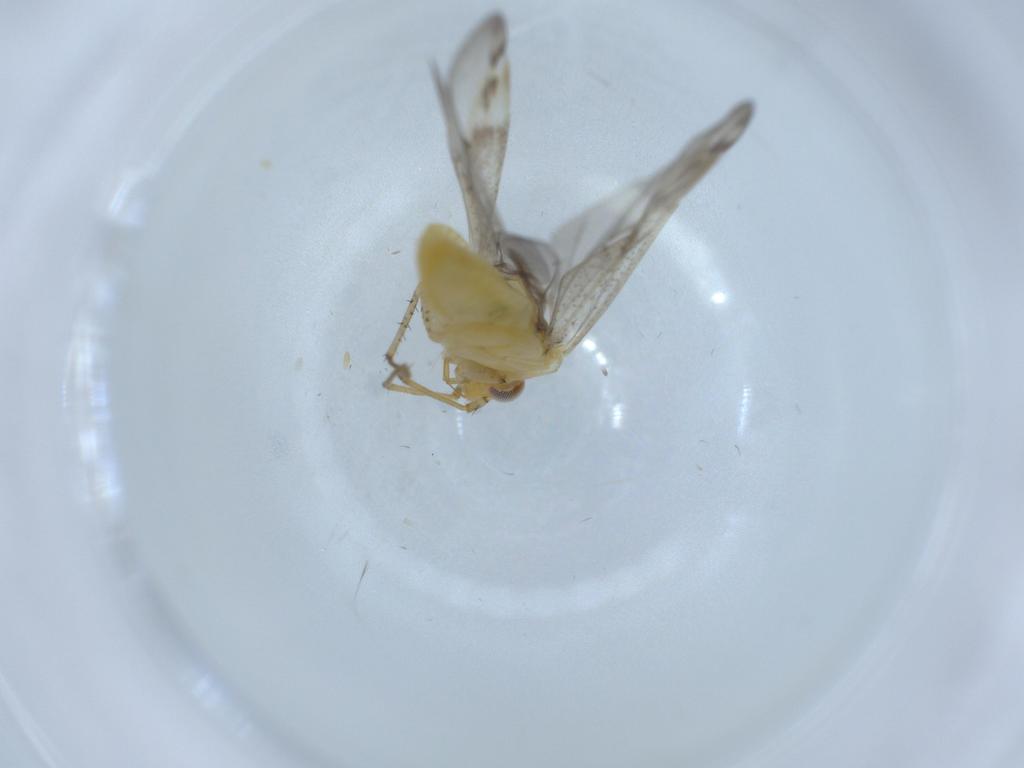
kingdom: Animalia
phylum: Arthropoda
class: Insecta
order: Hemiptera
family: Miridae
